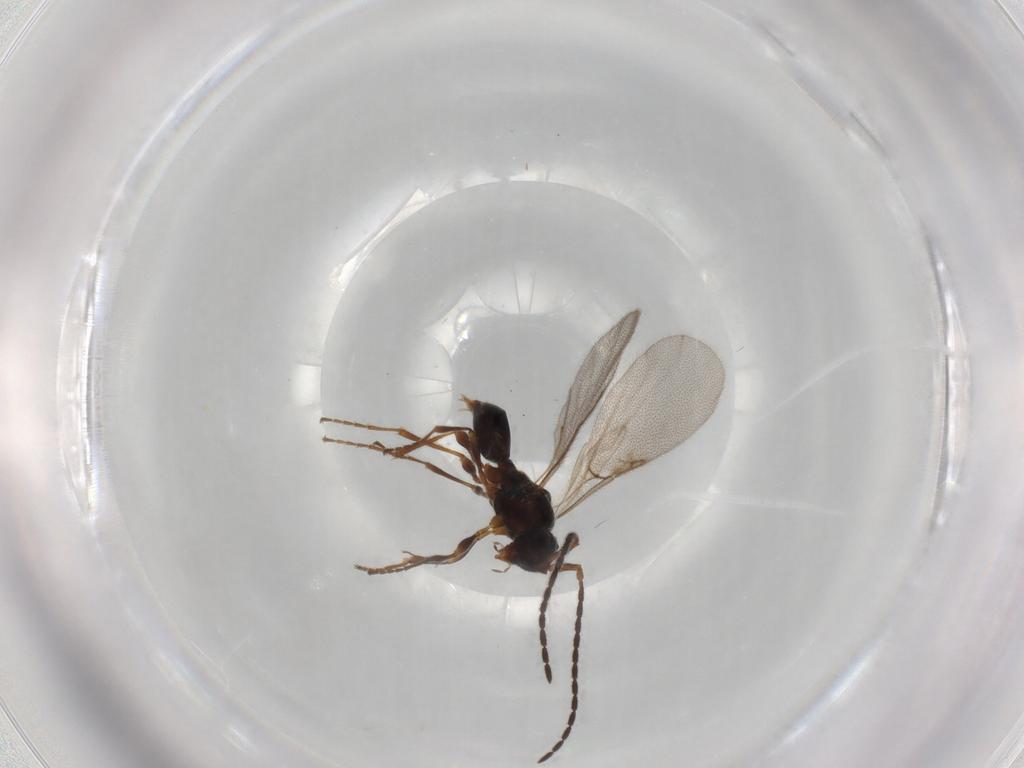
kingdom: Animalia
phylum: Arthropoda
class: Insecta
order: Hymenoptera
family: Diapriidae
